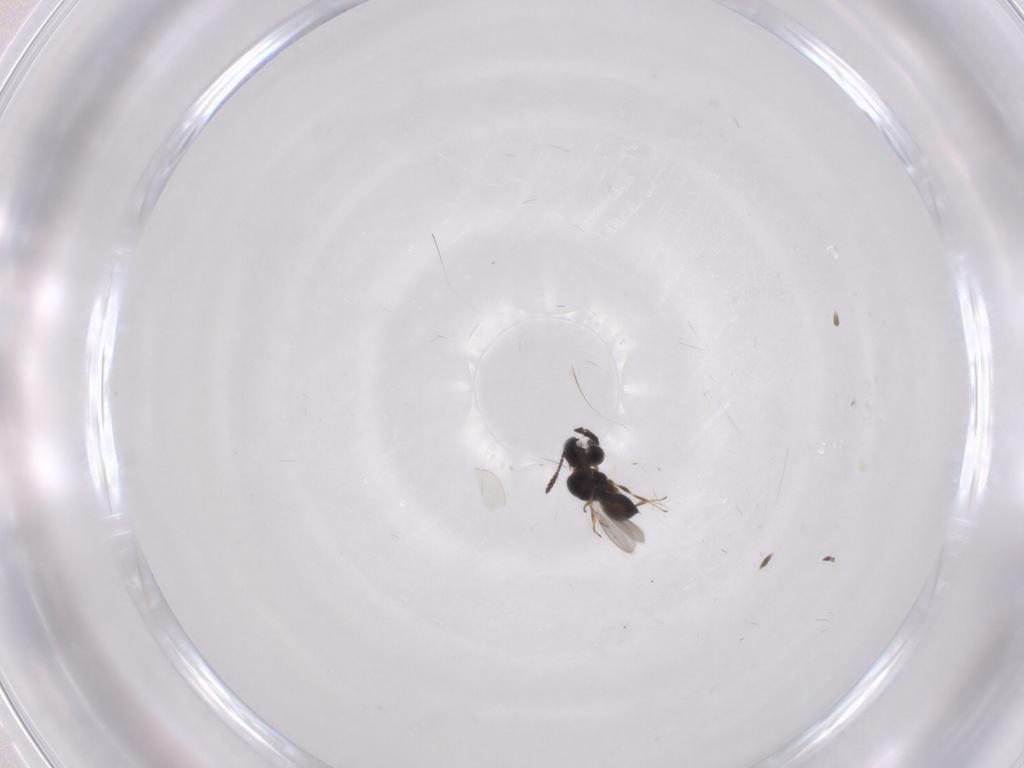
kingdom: Animalia
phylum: Arthropoda
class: Insecta
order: Hymenoptera
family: Scelionidae
